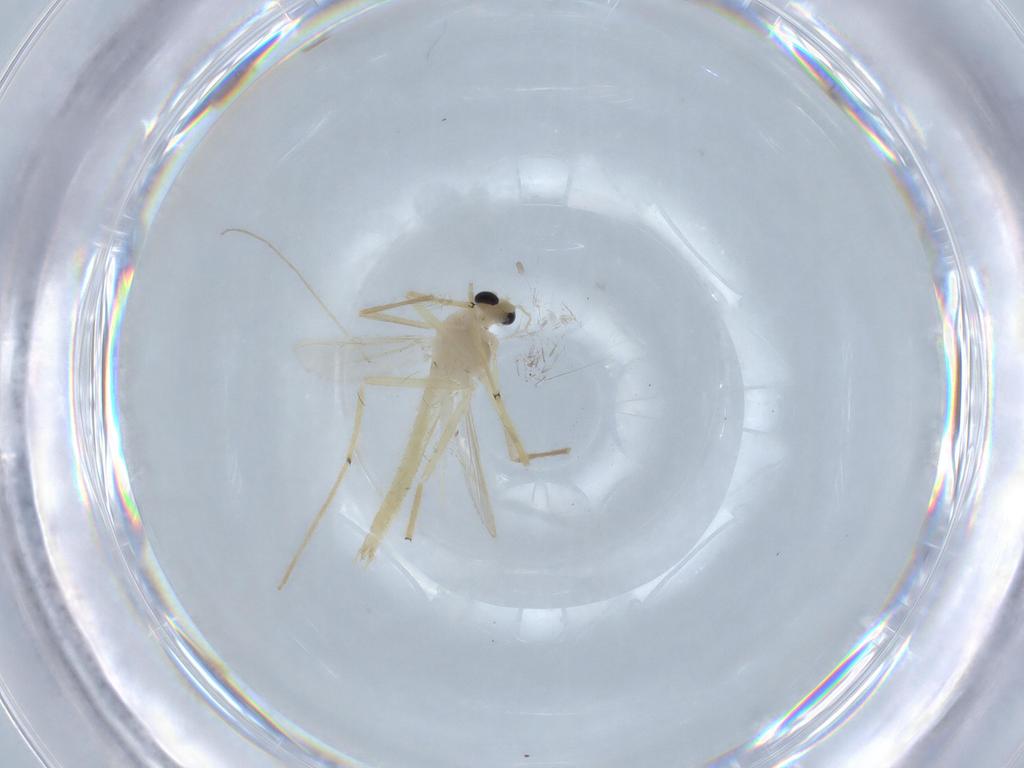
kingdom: Animalia
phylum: Arthropoda
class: Insecta
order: Diptera
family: Chironomidae
